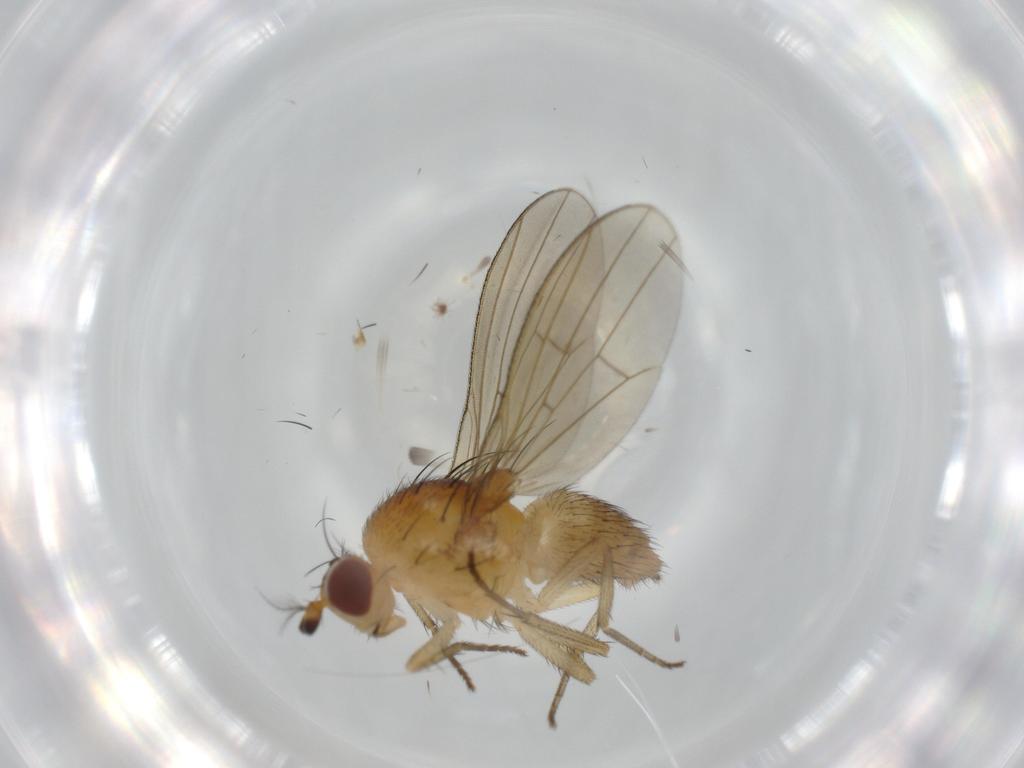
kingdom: Animalia
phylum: Arthropoda
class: Insecta
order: Diptera
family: Lauxaniidae
